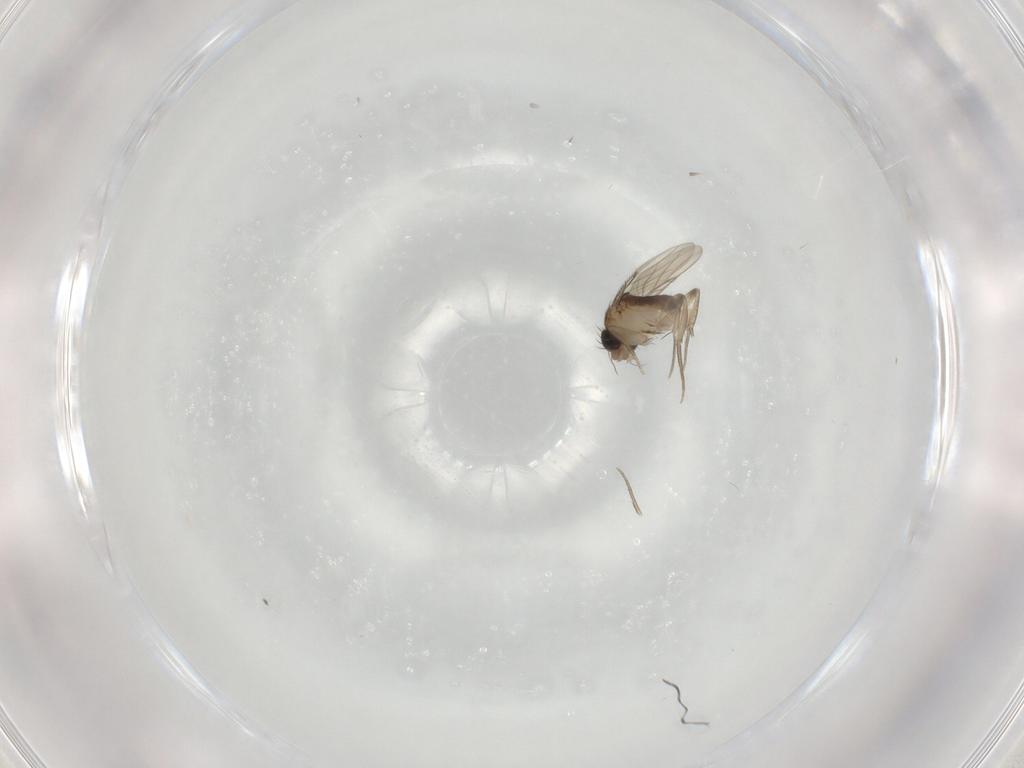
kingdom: Animalia
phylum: Arthropoda
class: Insecta
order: Diptera
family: Phoridae
